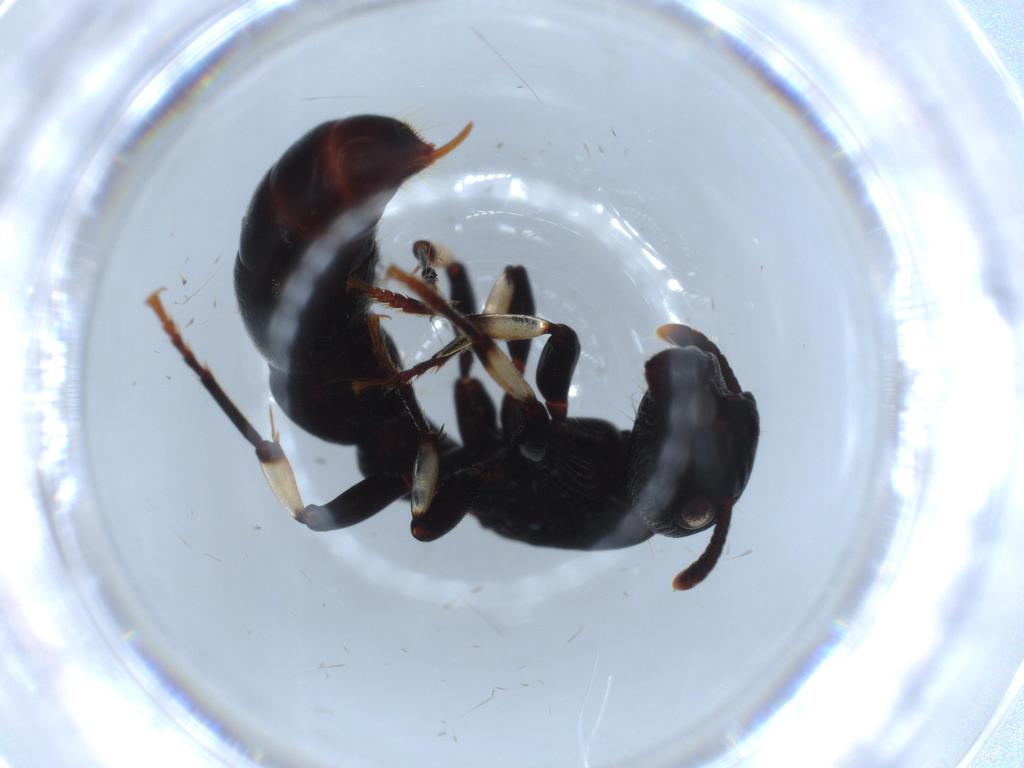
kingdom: Animalia
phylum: Arthropoda
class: Insecta
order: Hymenoptera
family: Formicidae
